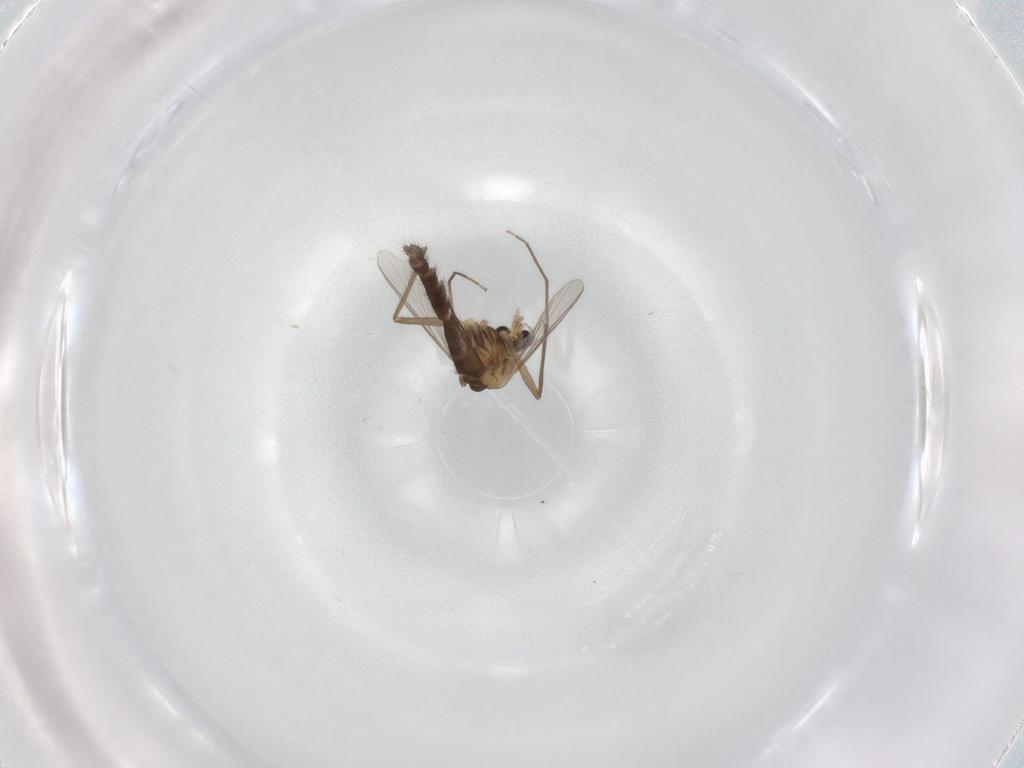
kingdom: Animalia
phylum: Arthropoda
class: Insecta
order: Diptera
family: Chironomidae
